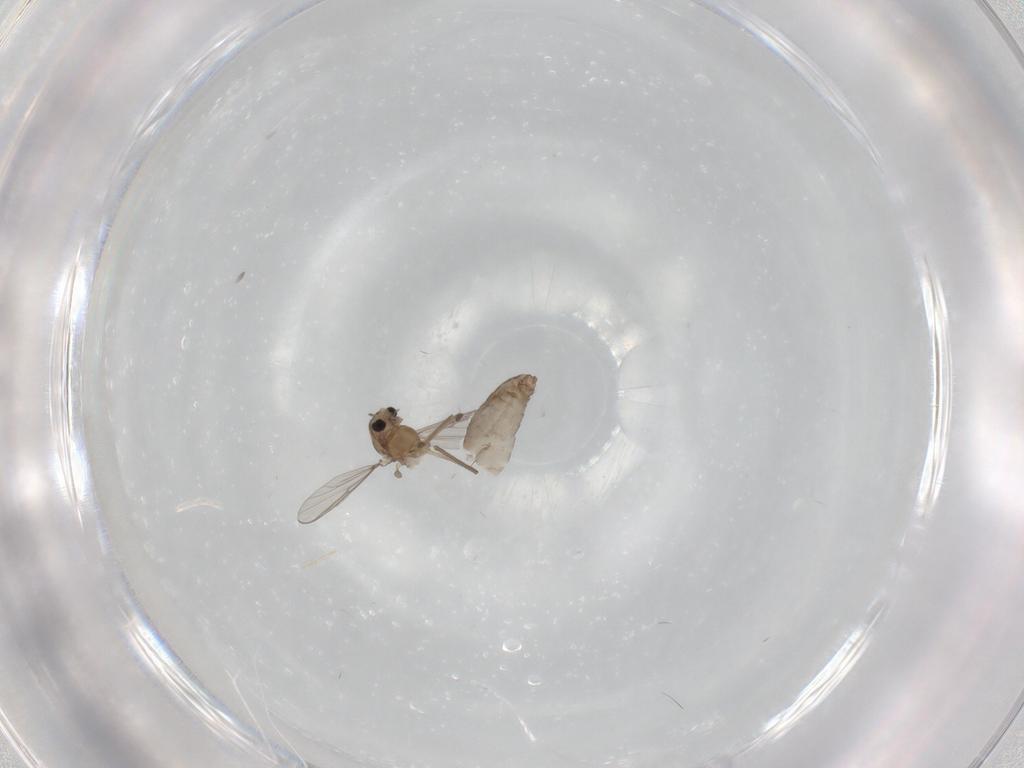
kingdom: Animalia
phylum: Arthropoda
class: Insecta
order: Diptera
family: Chironomidae
